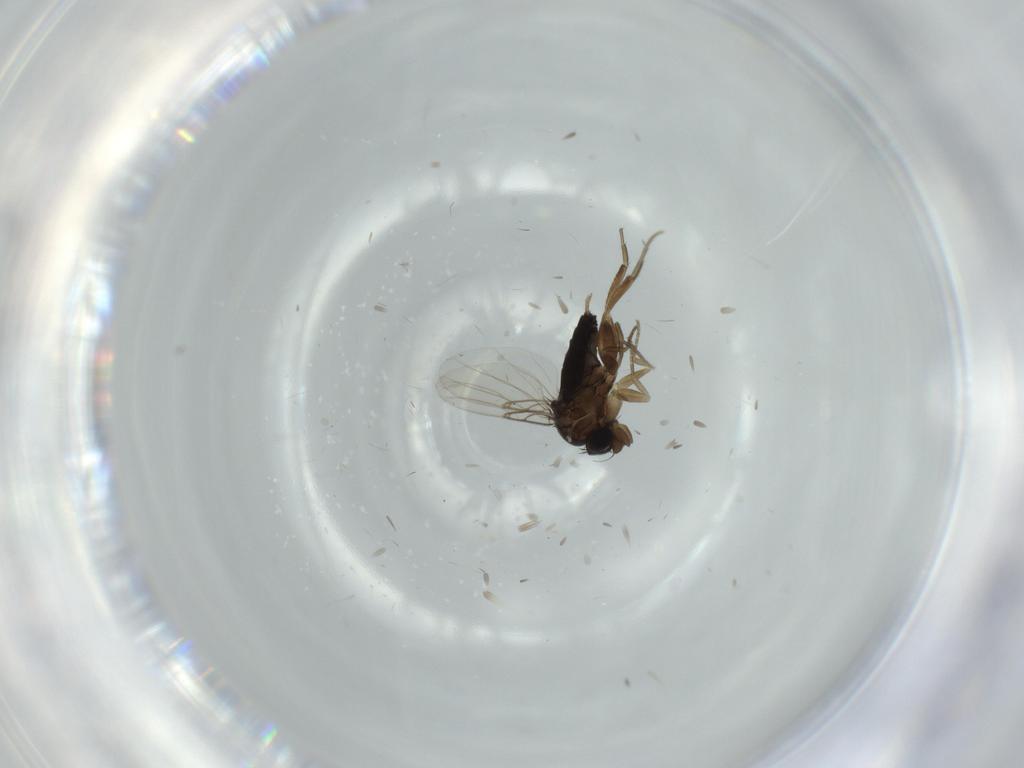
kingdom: Animalia
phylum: Arthropoda
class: Insecta
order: Diptera
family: Phoridae
